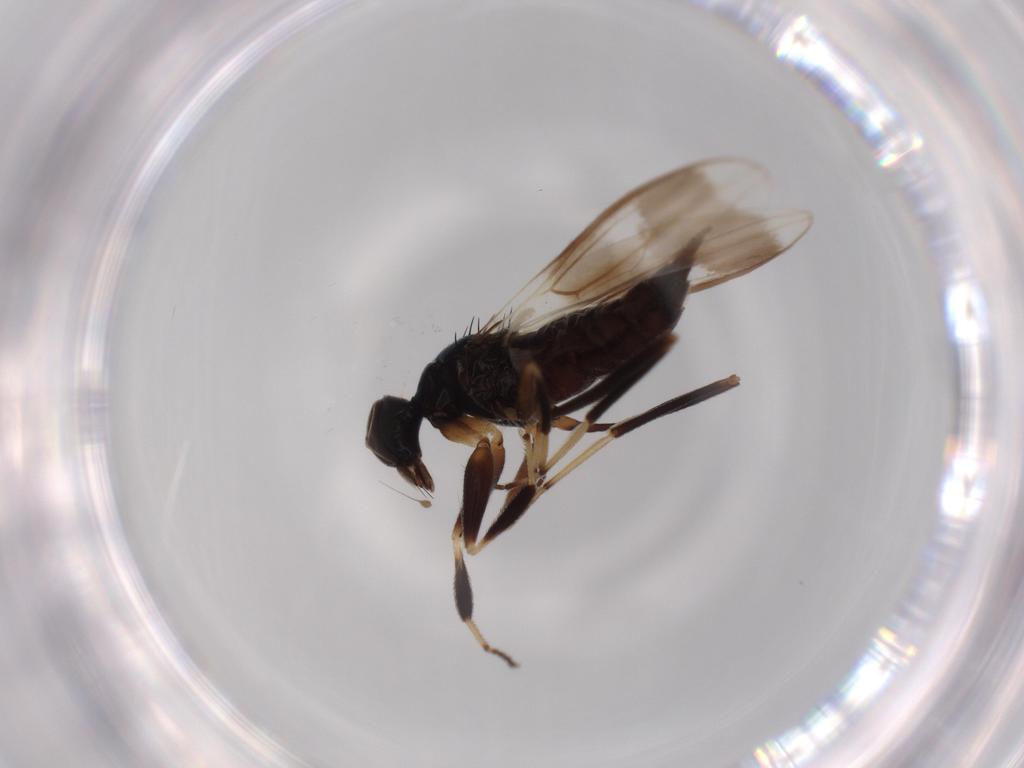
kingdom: Animalia
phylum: Arthropoda
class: Insecta
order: Diptera
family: Hybotidae
